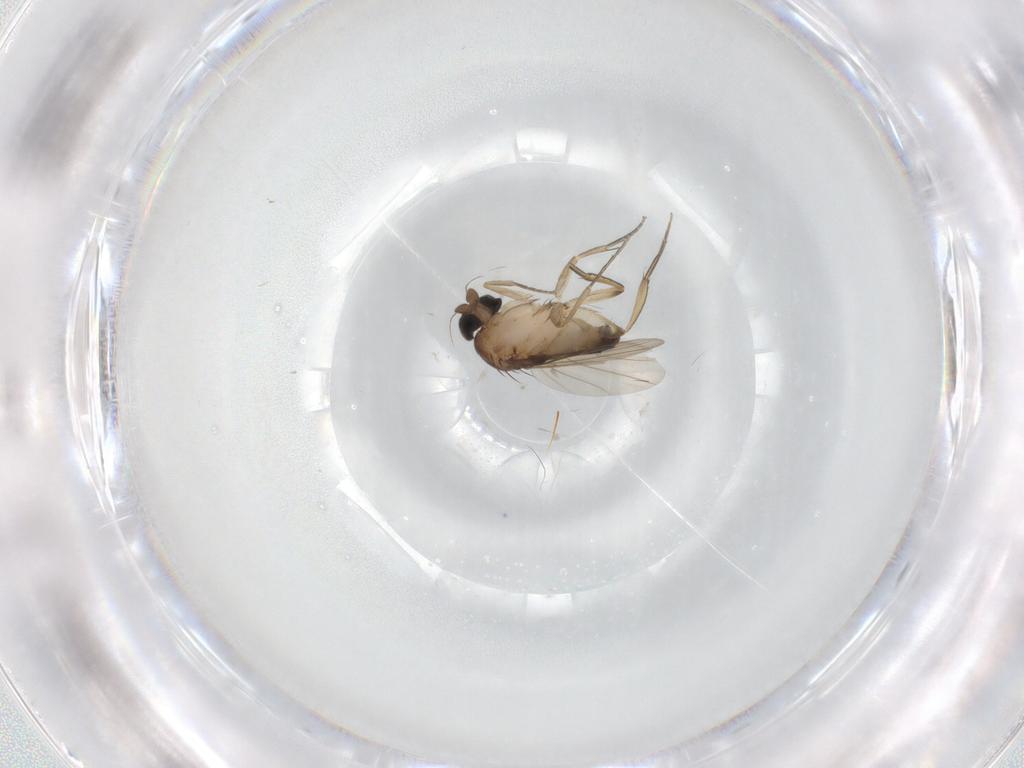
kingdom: Animalia
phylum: Arthropoda
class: Insecta
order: Diptera
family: Phoridae
